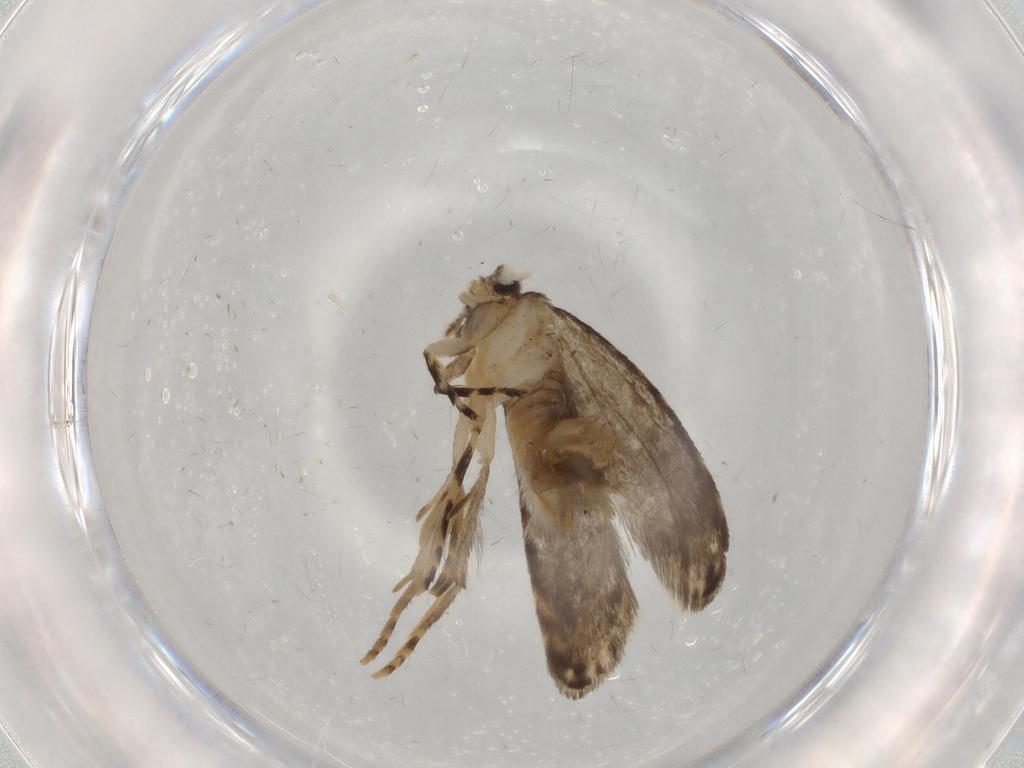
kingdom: Animalia
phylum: Arthropoda
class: Insecta
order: Lepidoptera
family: Tineidae
